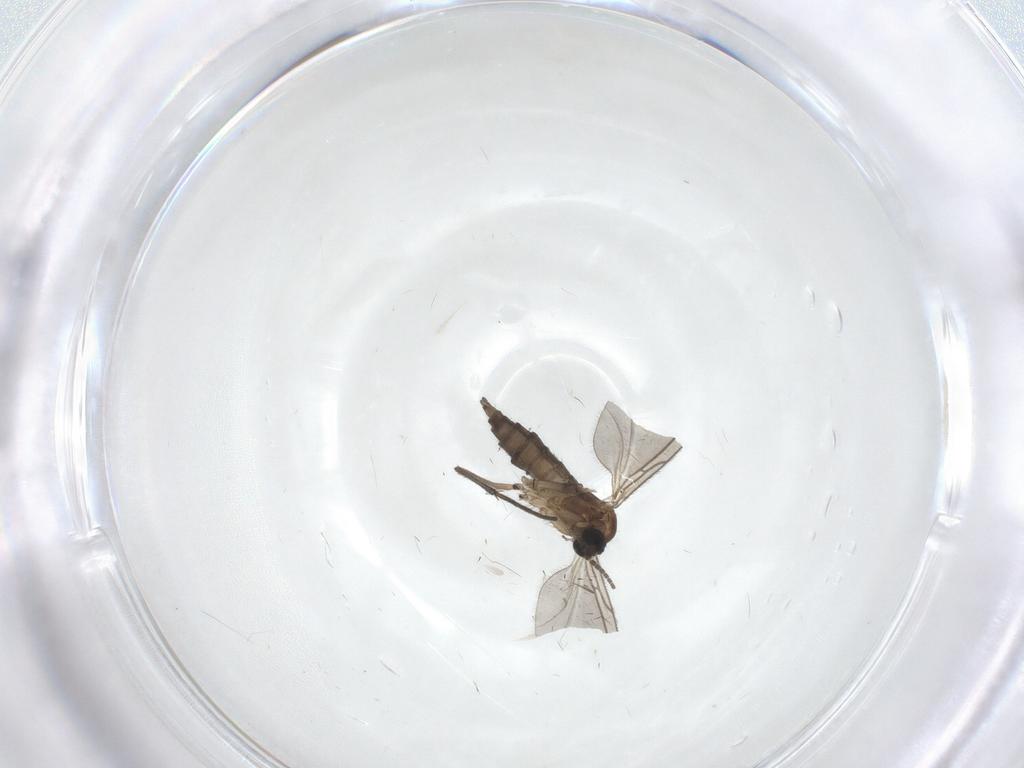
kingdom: Animalia
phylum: Arthropoda
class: Insecta
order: Diptera
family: Sciaridae
